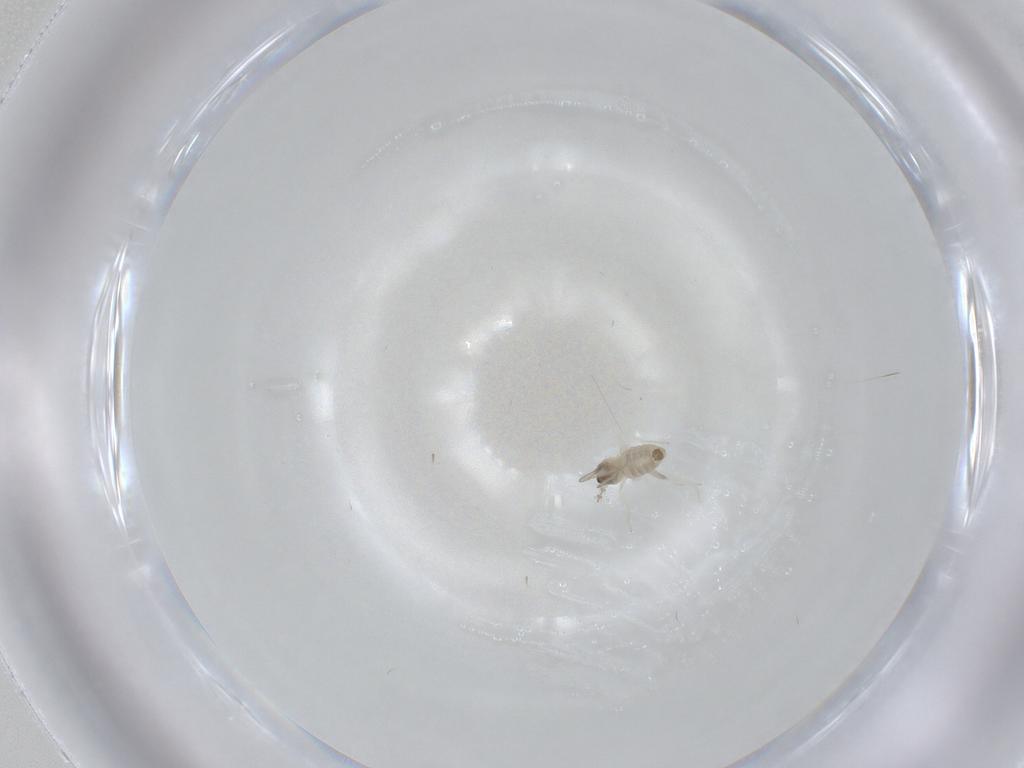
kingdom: Animalia
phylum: Arthropoda
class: Insecta
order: Diptera
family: Cecidomyiidae
